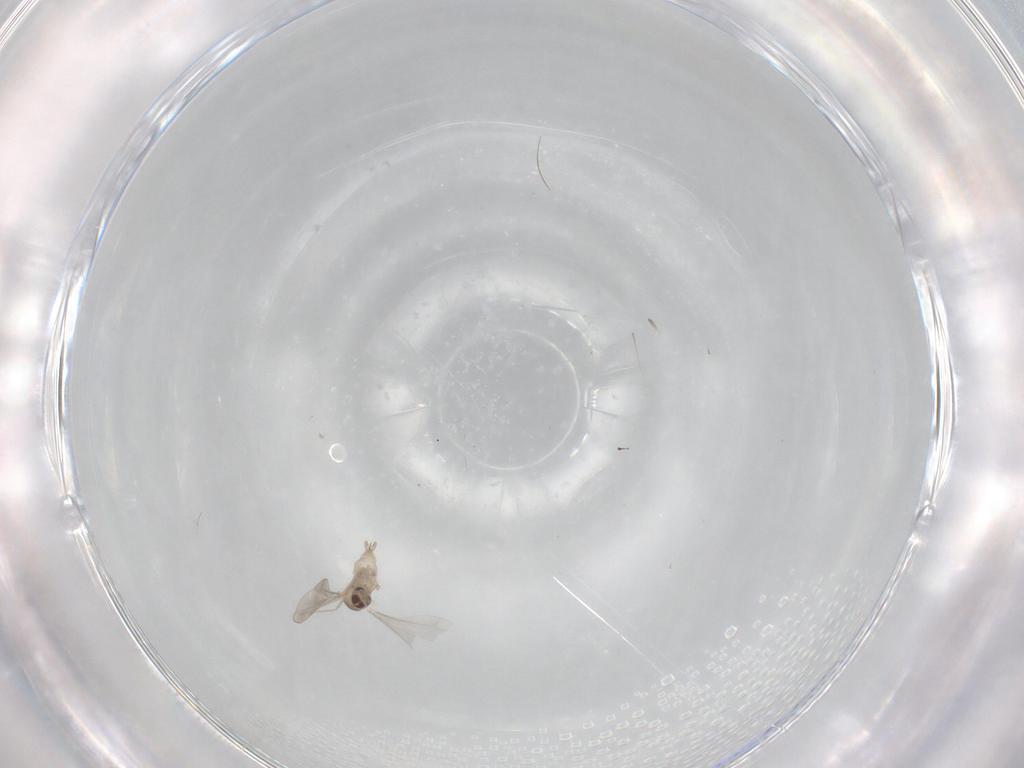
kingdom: Animalia
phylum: Arthropoda
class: Insecta
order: Diptera
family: Cecidomyiidae
